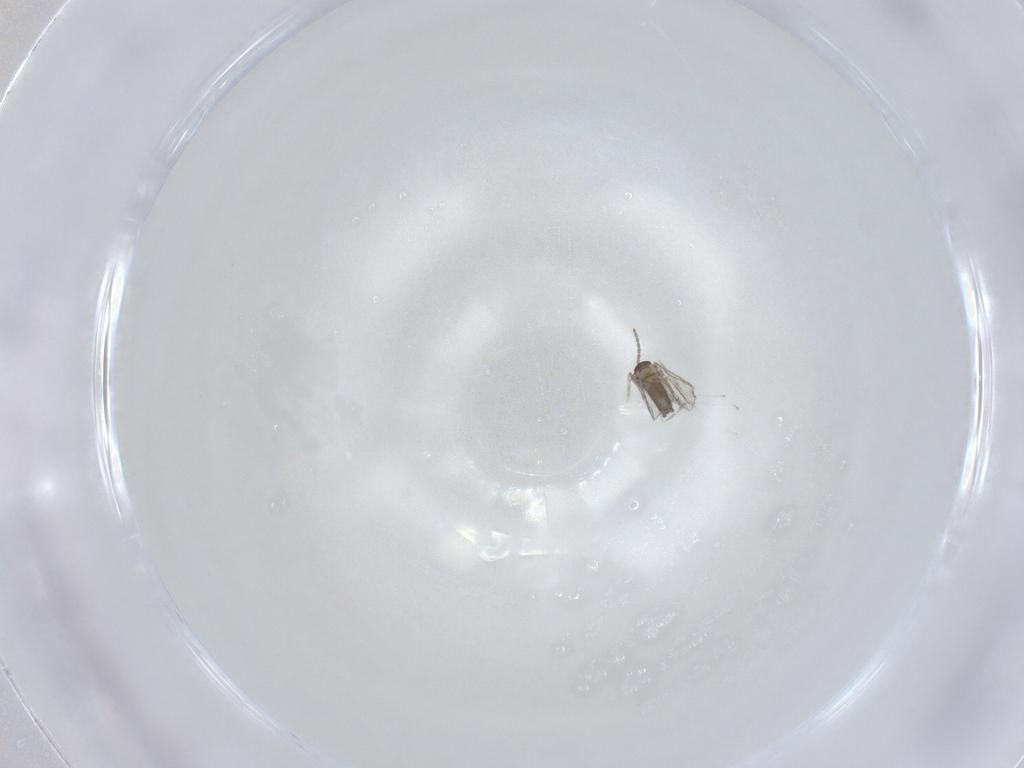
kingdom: Animalia
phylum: Arthropoda
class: Insecta
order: Diptera
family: Cecidomyiidae
